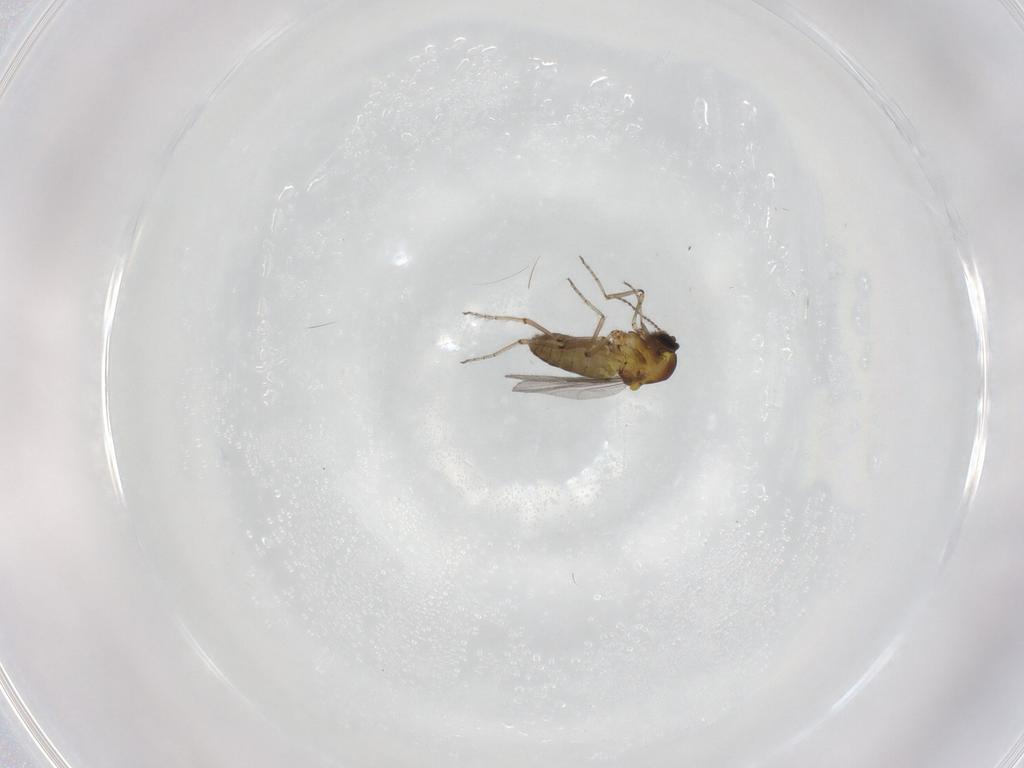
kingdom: Animalia
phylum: Arthropoda
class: Insecta
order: Diptera
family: Ceratopogonidae
